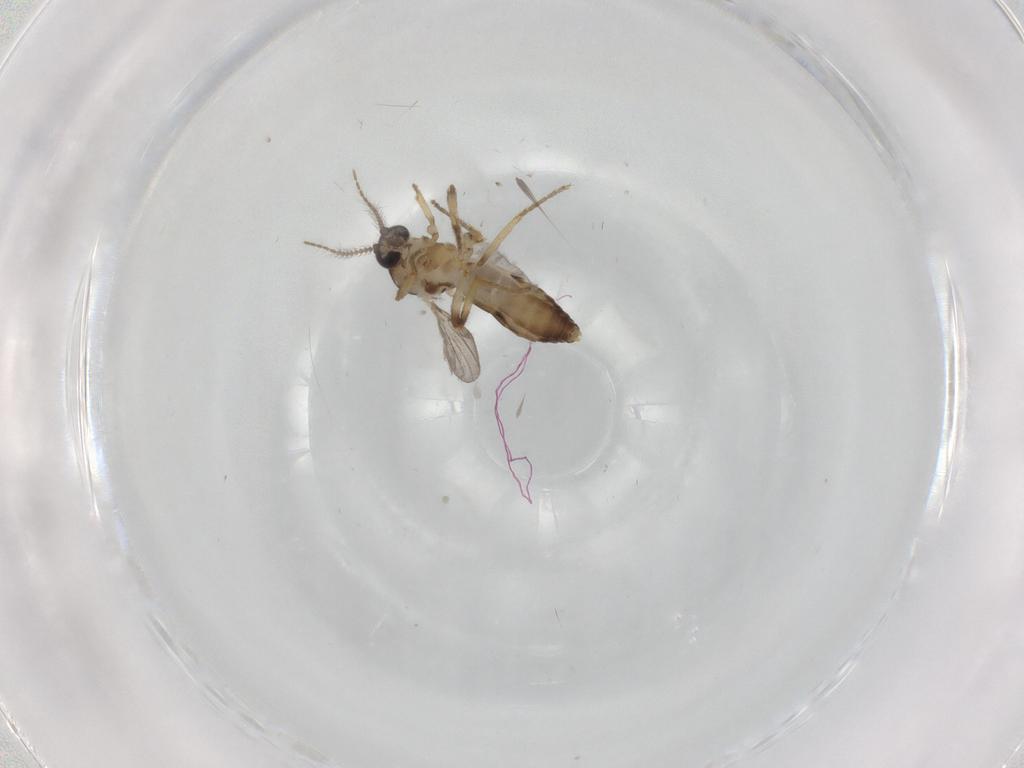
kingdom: Animalia
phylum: Arthropoda
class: Insecta
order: Diptera
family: Ceratopogonidae
